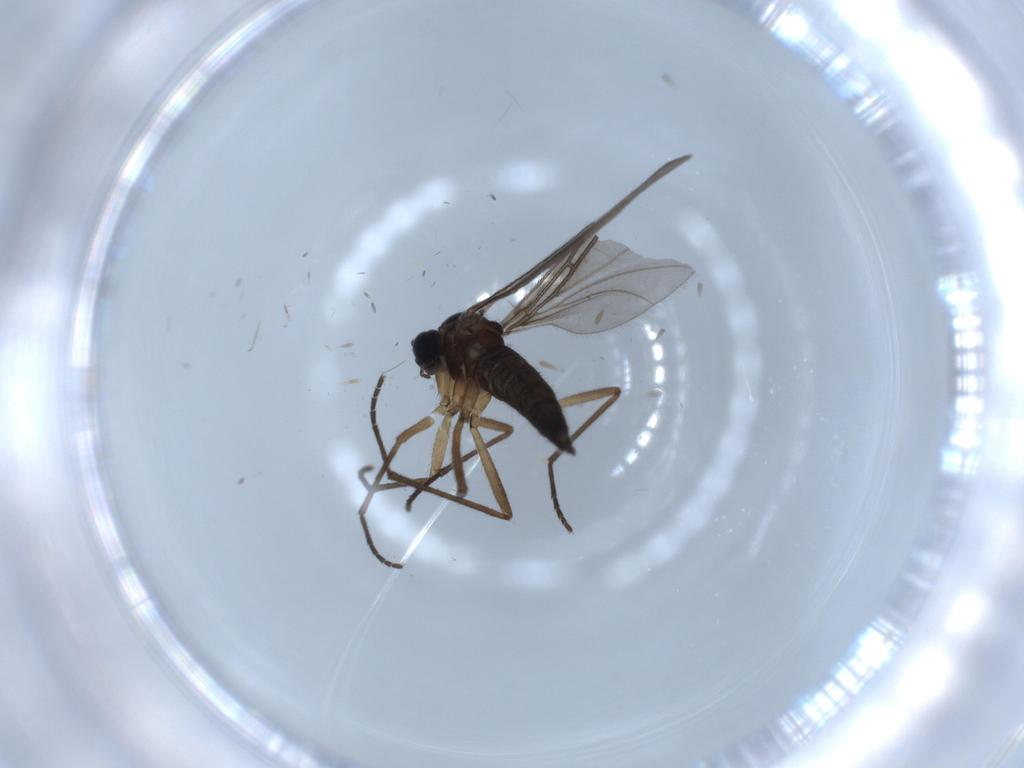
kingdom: Animalia
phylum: Arthropoda
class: Insecta
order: Diptera
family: Sciaridae
